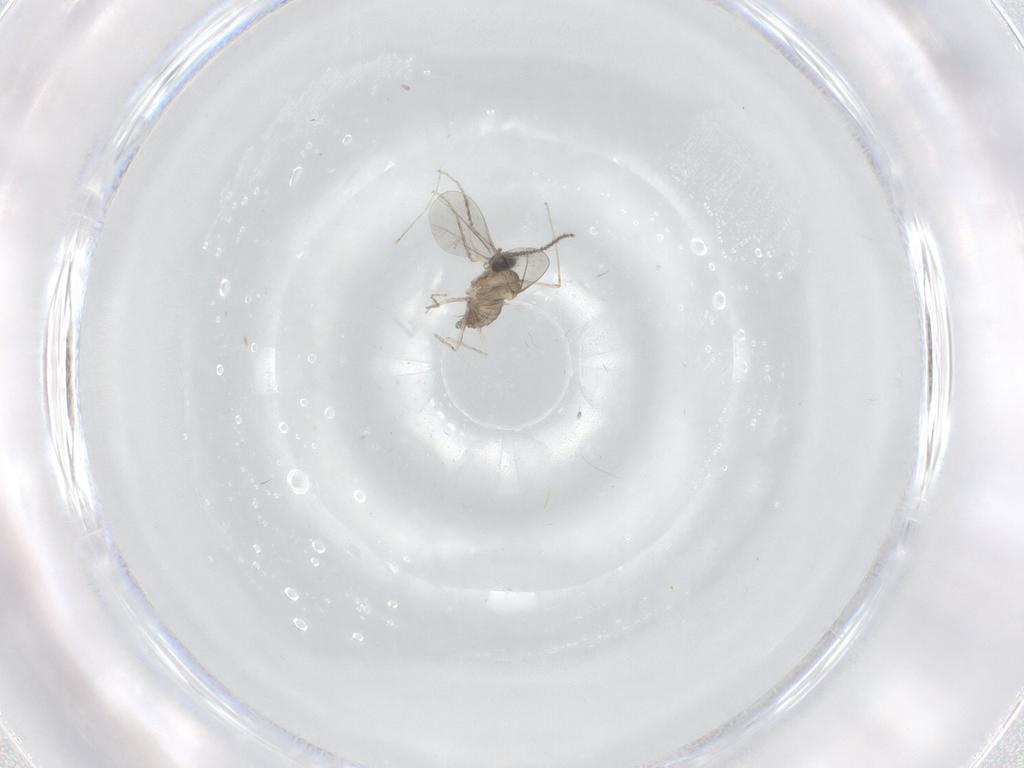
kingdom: Animalia
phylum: Arthropoda
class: Insecta
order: Diptera
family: Cecidomyiidae
